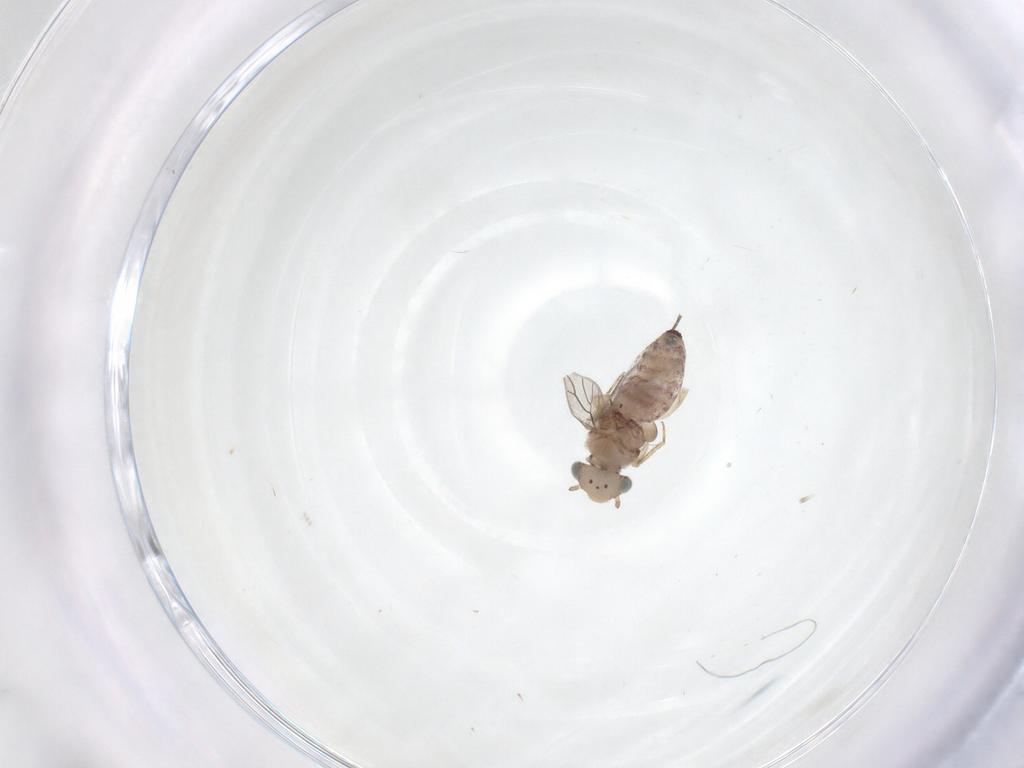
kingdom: Animalia
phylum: Arthropoda
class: Insecta
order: Psocodea
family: Lepidopsocidae
